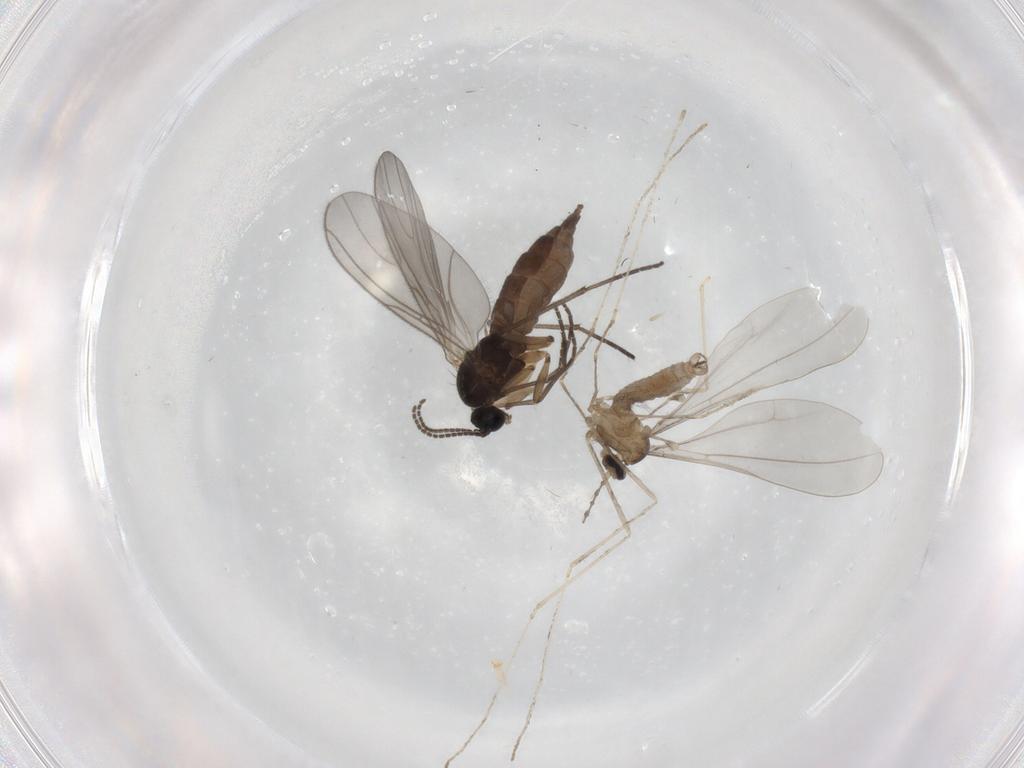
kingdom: Animalia
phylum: Arthropoda
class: Insecta
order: Diptera
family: Sciaridae
